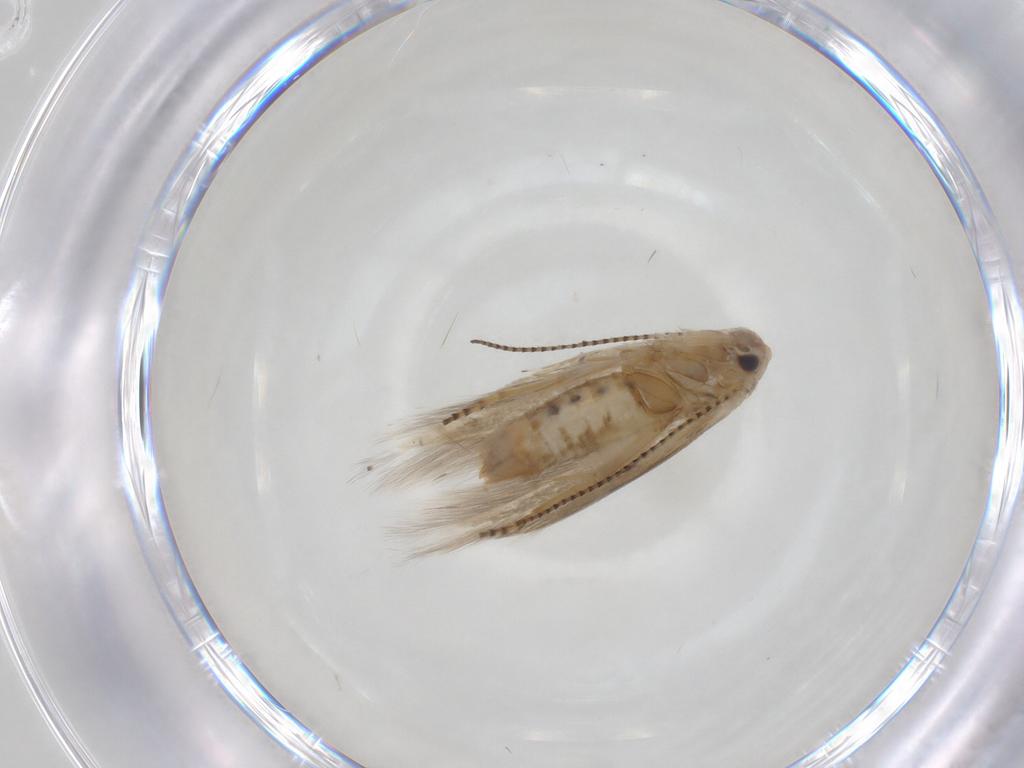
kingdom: Animalia
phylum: Arthropoda
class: Insecta
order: Lepidoptera
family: Bucculatricidae
